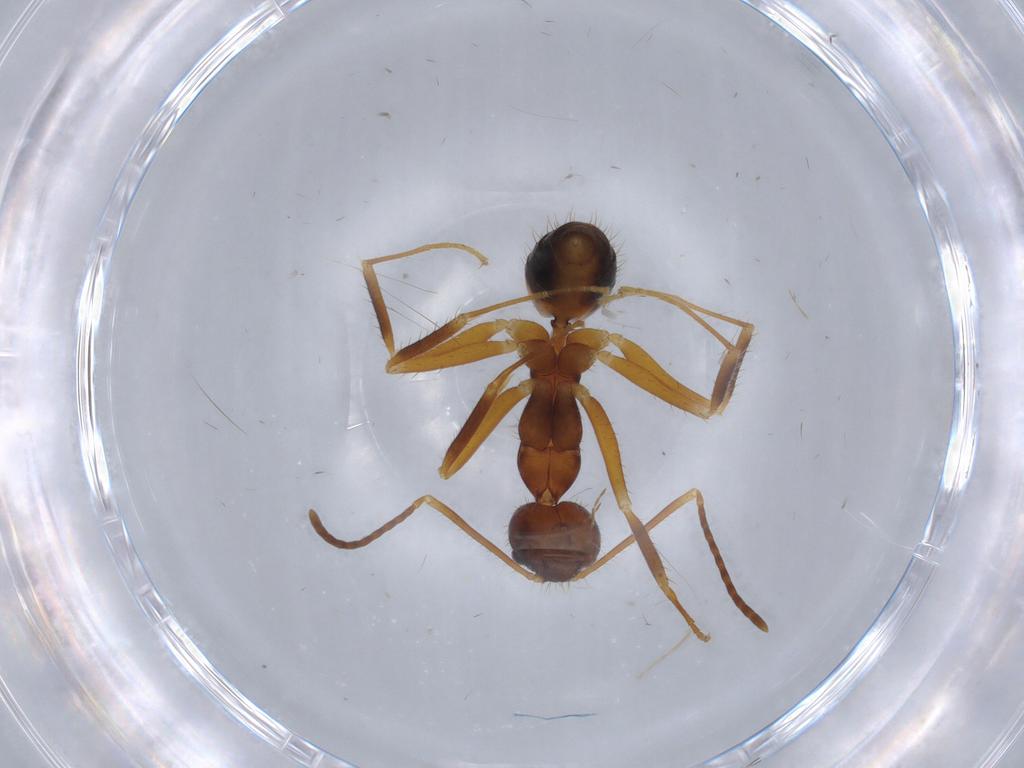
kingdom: Animalia
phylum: Arthropoda
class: Insecta
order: Hymenoptera
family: Formicidae
